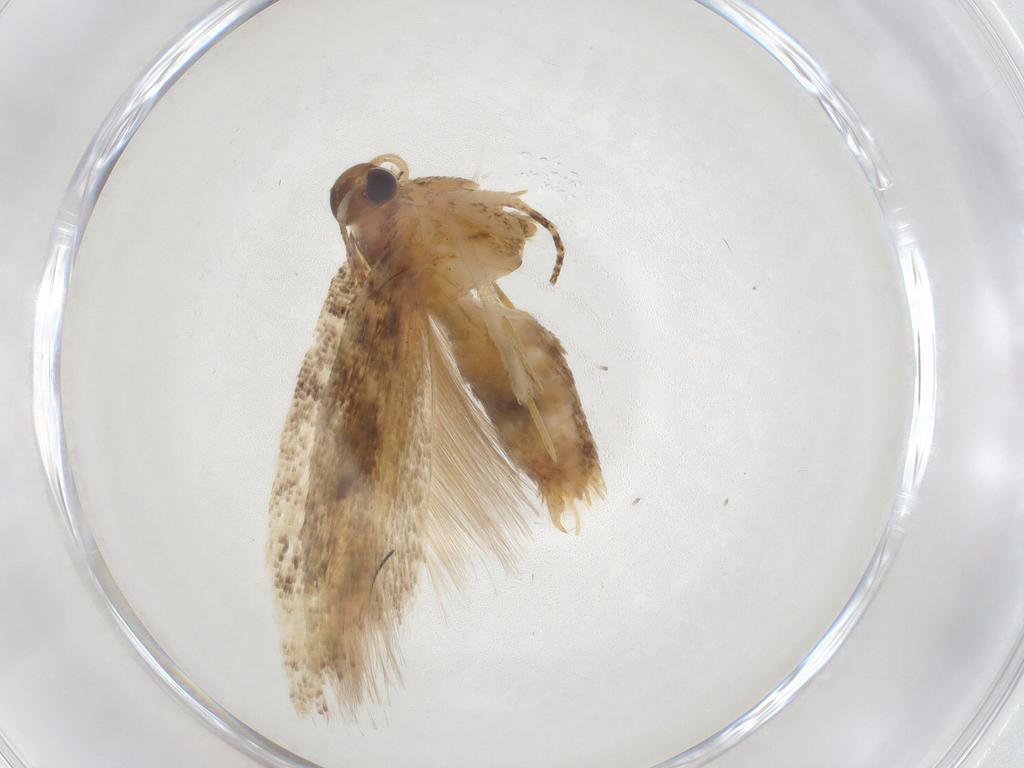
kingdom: Animalia
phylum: Arthropoda
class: Insecta
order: Lepidoptera
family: Gelechiidae
